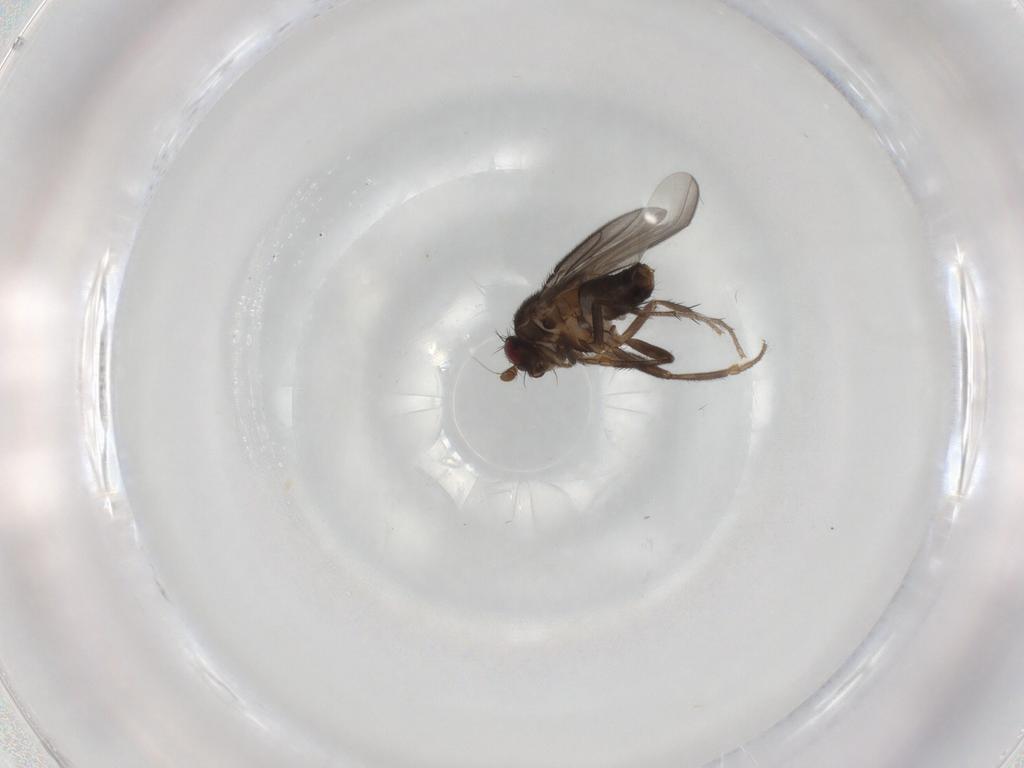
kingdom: Animalia
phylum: Arthropoda
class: Insecta
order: Diptera
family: Sphaeroceridae
